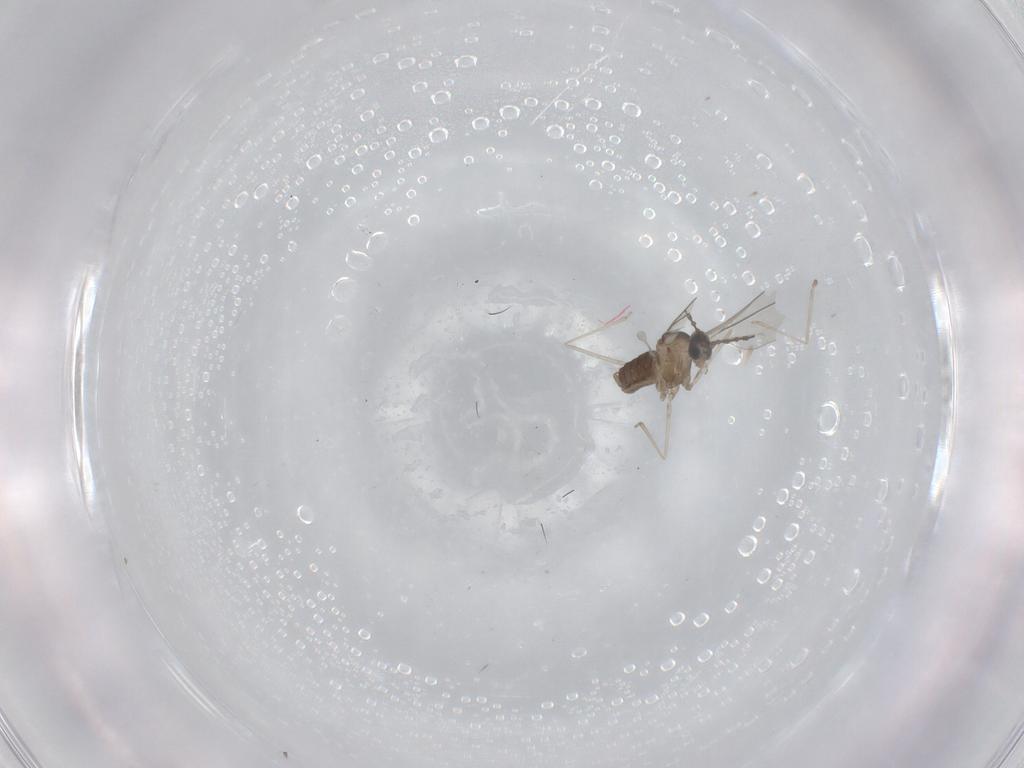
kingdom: Animalia
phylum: Arthropoda
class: Insecta
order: Diptera
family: Cecidomyiidae
